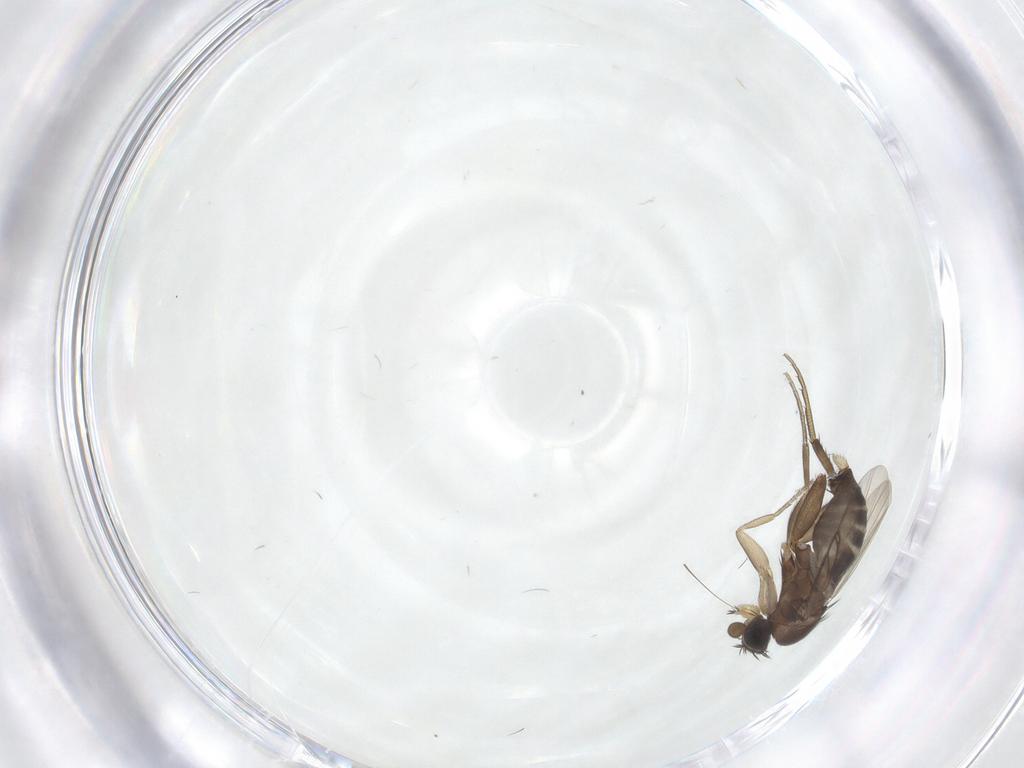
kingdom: Animalia
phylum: Arthropoda
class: Insecta
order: Diptera
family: Phoridae
